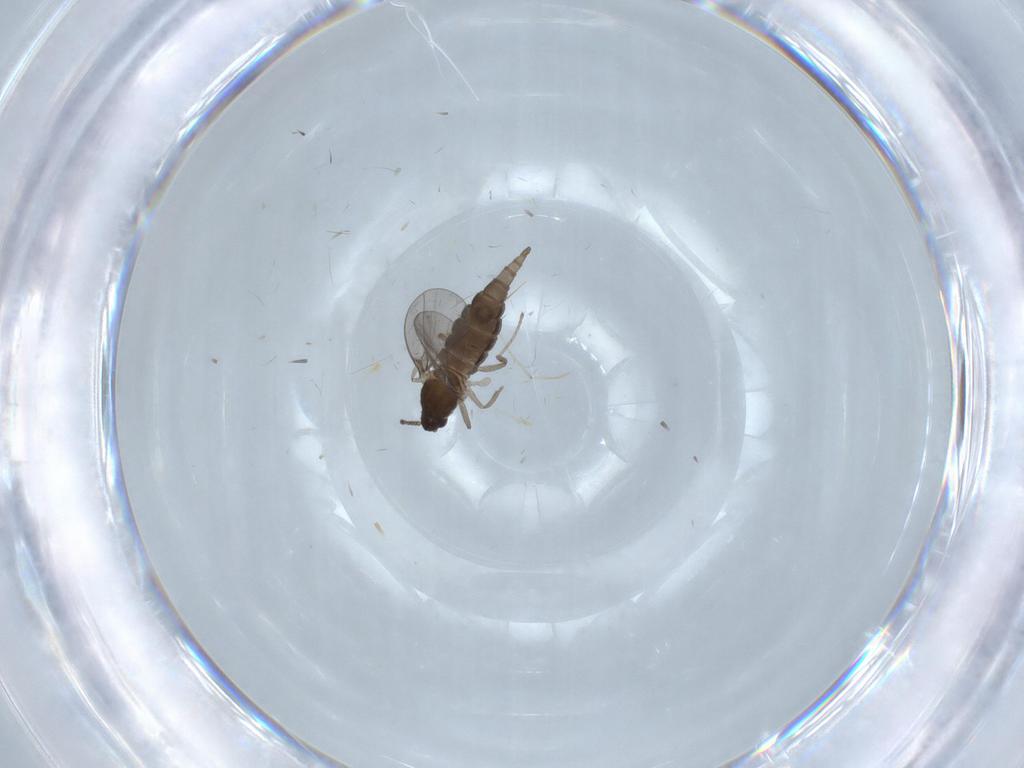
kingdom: Animalia
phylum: Arthropoda
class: Insecta
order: Diptera
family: Cecidomyiidae
